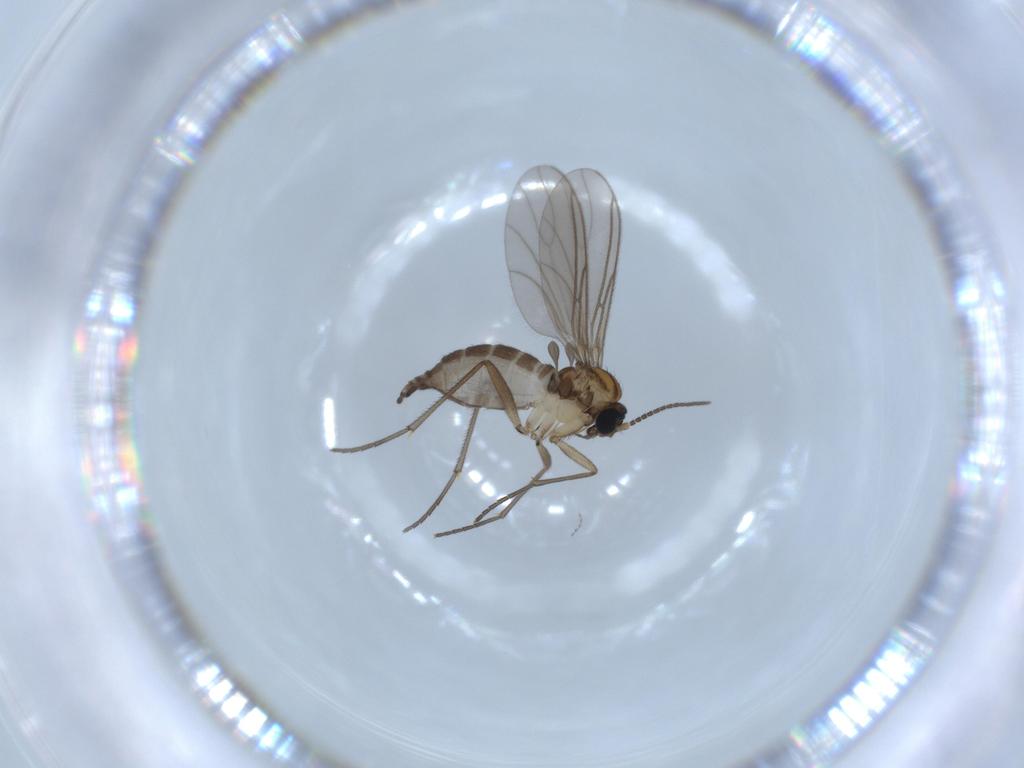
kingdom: Animalia
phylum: Arthropoda
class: Insecta
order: Diptera
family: Sciaridae
